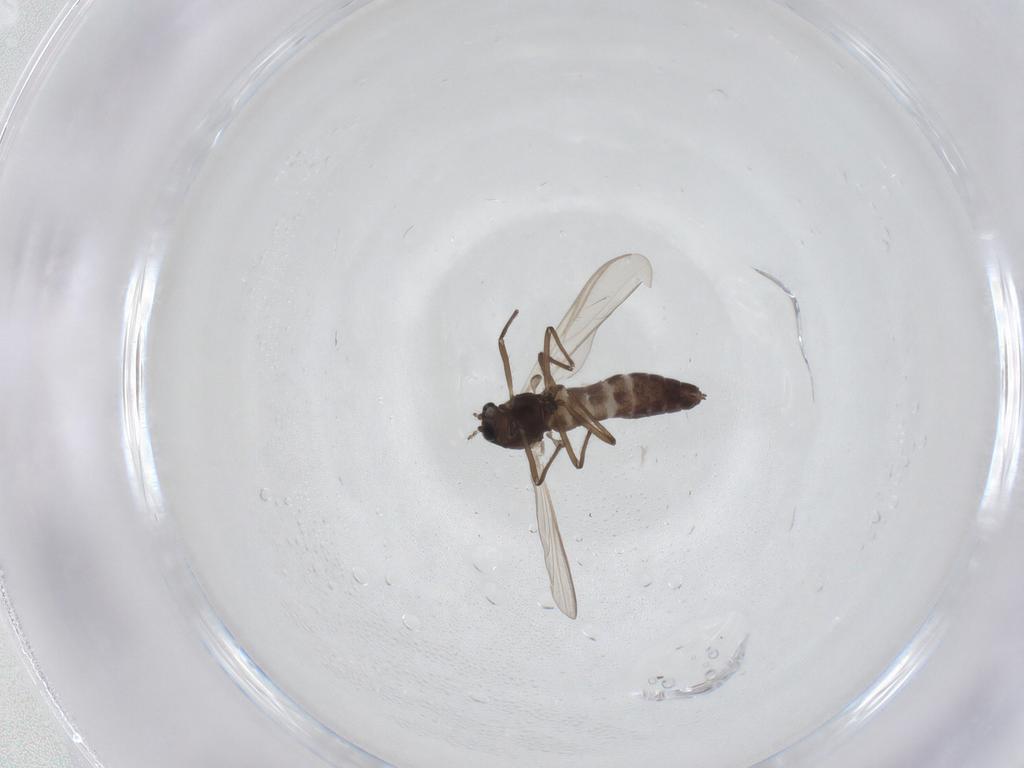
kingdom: Animalia
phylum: Arthropoda
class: Insecta
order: Diptera
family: Chironomidae
